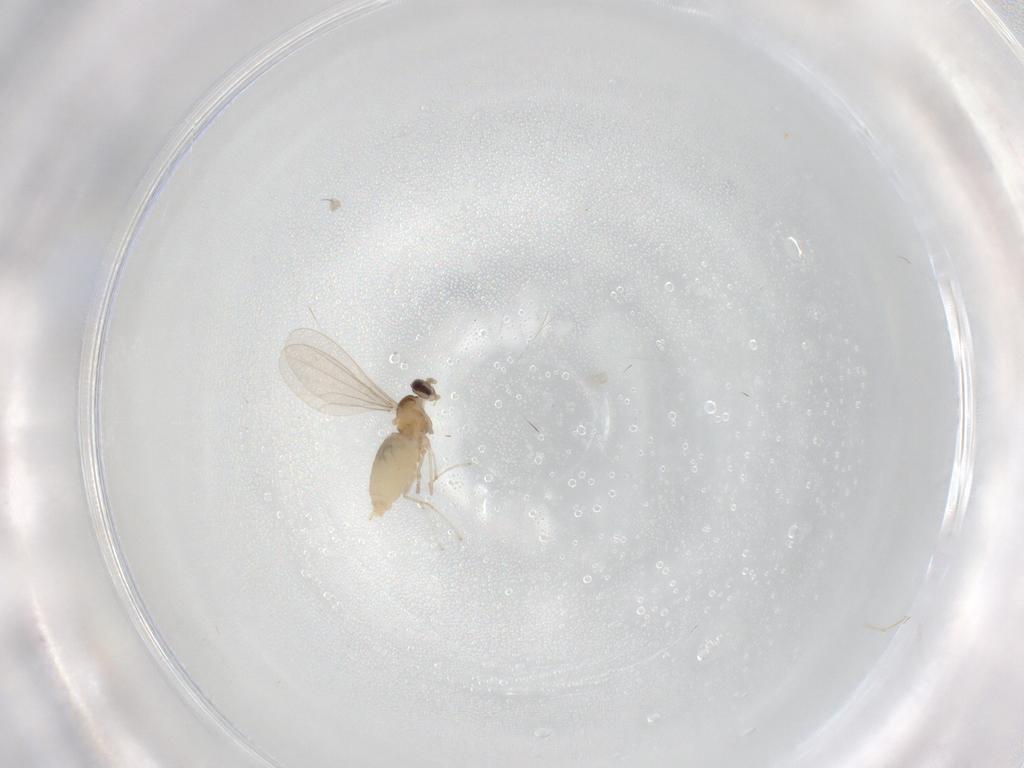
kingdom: Animalia
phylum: Arthropoda
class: Insecta
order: Diptera
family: Cecidomyiidae
